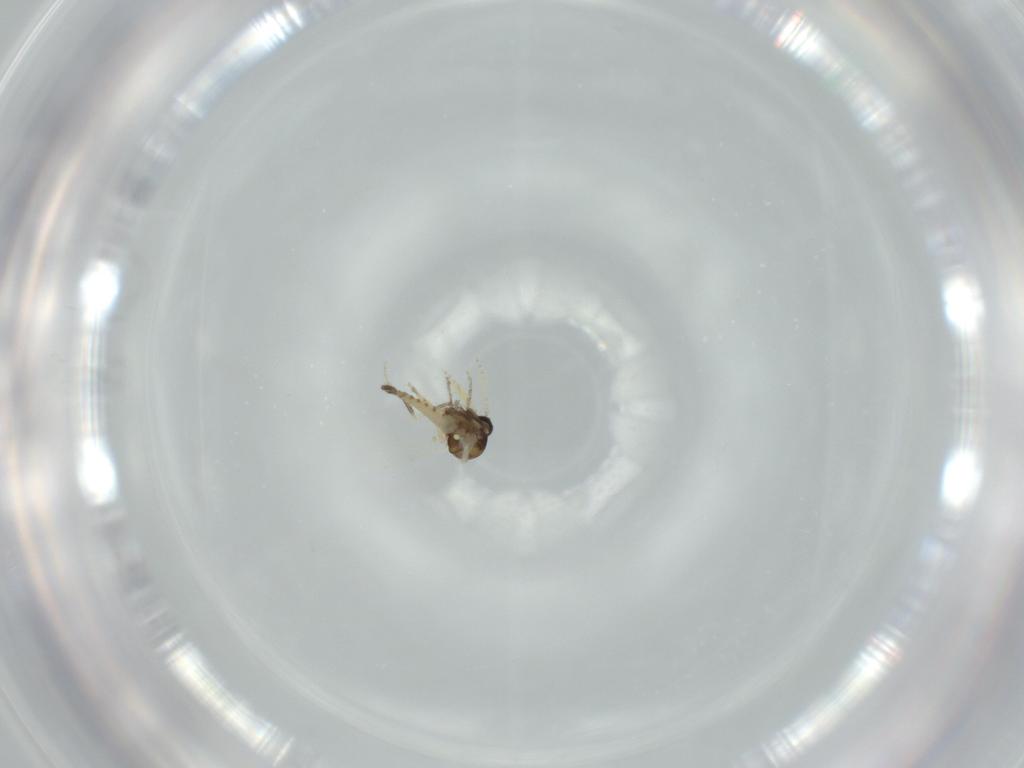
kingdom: Animalia
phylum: Arthropoda
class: Insecta
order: Diptera
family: Ceratopogonidae
